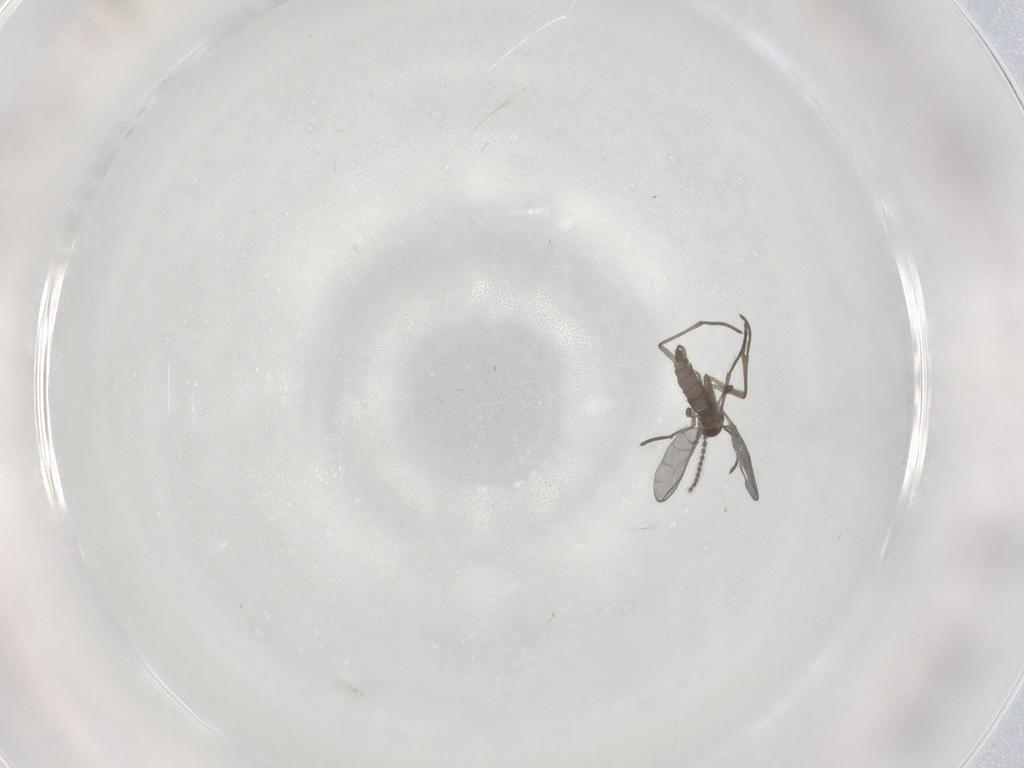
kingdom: Animalia
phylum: Arthropoda
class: Insecta
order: Diptera
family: Cecidomyiidae
